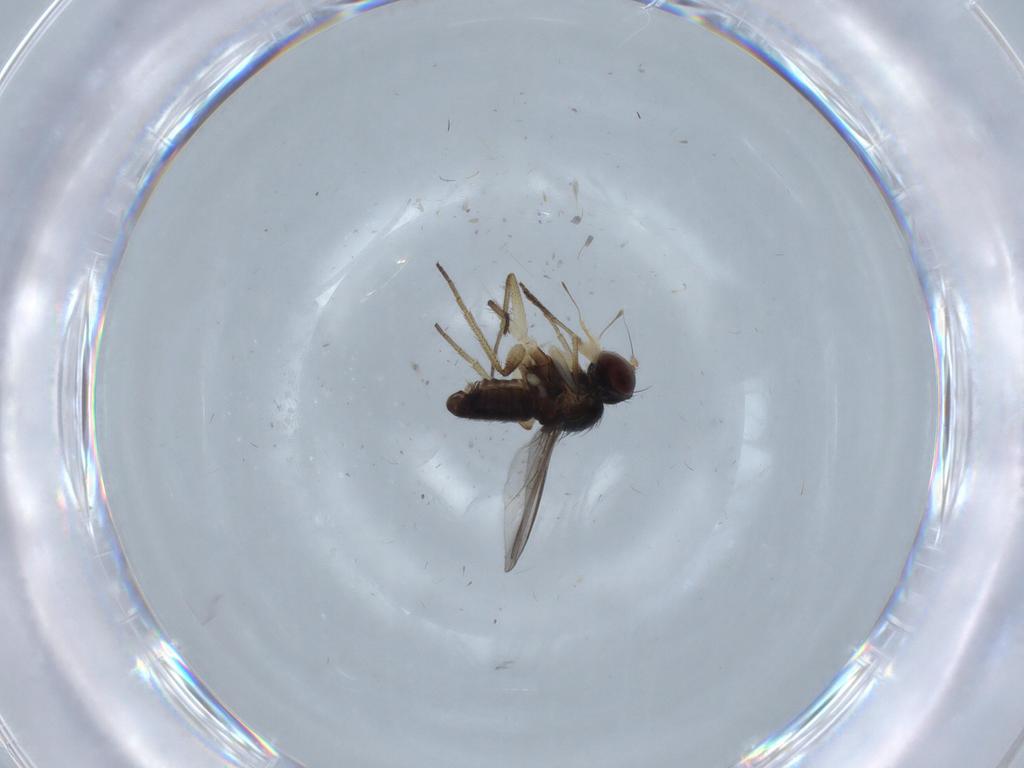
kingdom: Animalia
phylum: Arthropoda
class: Insecta
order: Diptera
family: Dolichopodidae
